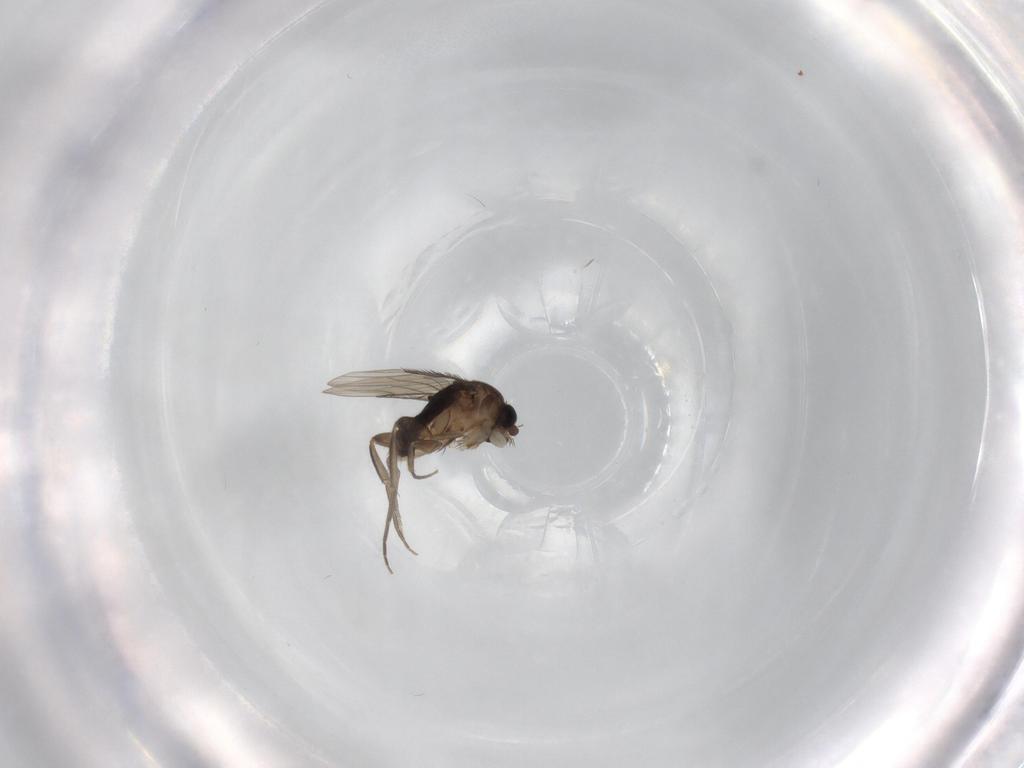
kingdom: Animalia
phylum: Arthropoda
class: Insecta
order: Diptera
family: Phoridae
